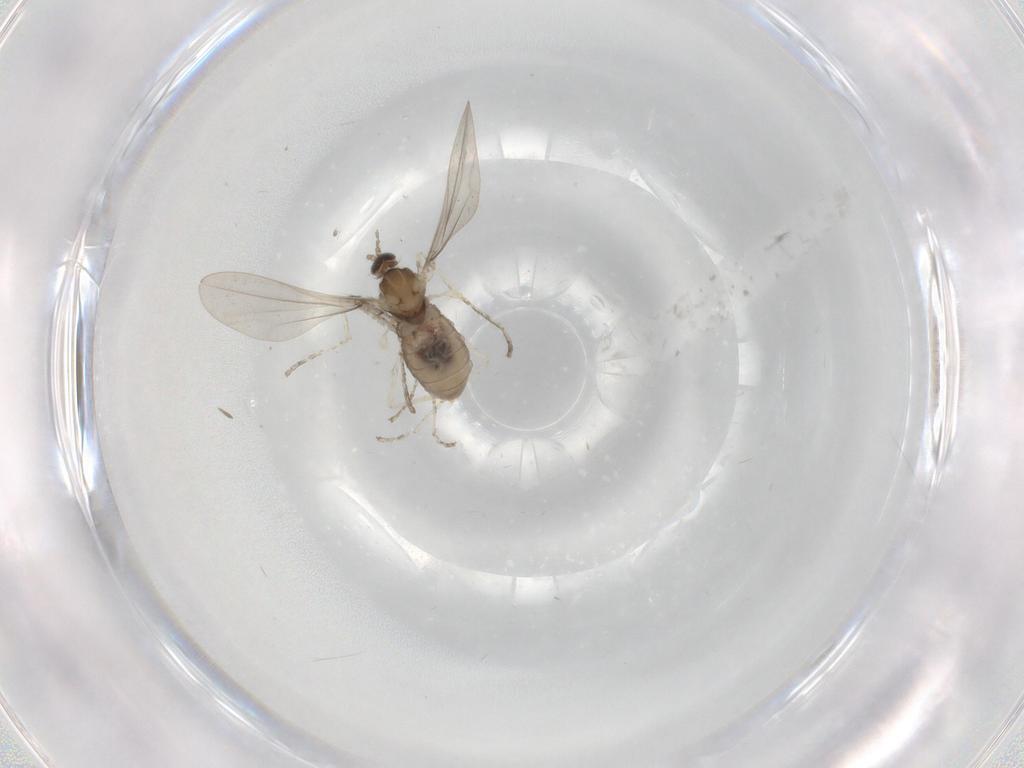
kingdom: Animalia
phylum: Arthropoda
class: Insecta
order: Diptera
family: Cecidomyiidae
